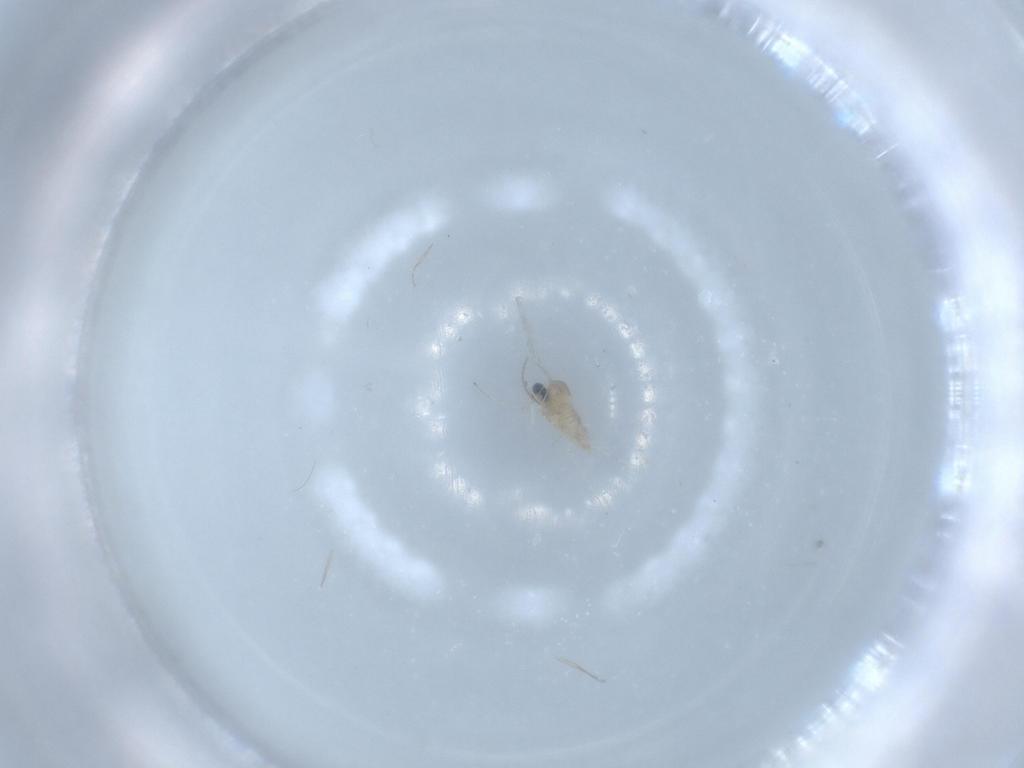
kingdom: Animalia
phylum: Arthropoda
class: Insecta
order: Diptera
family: Cecidomyiidae
